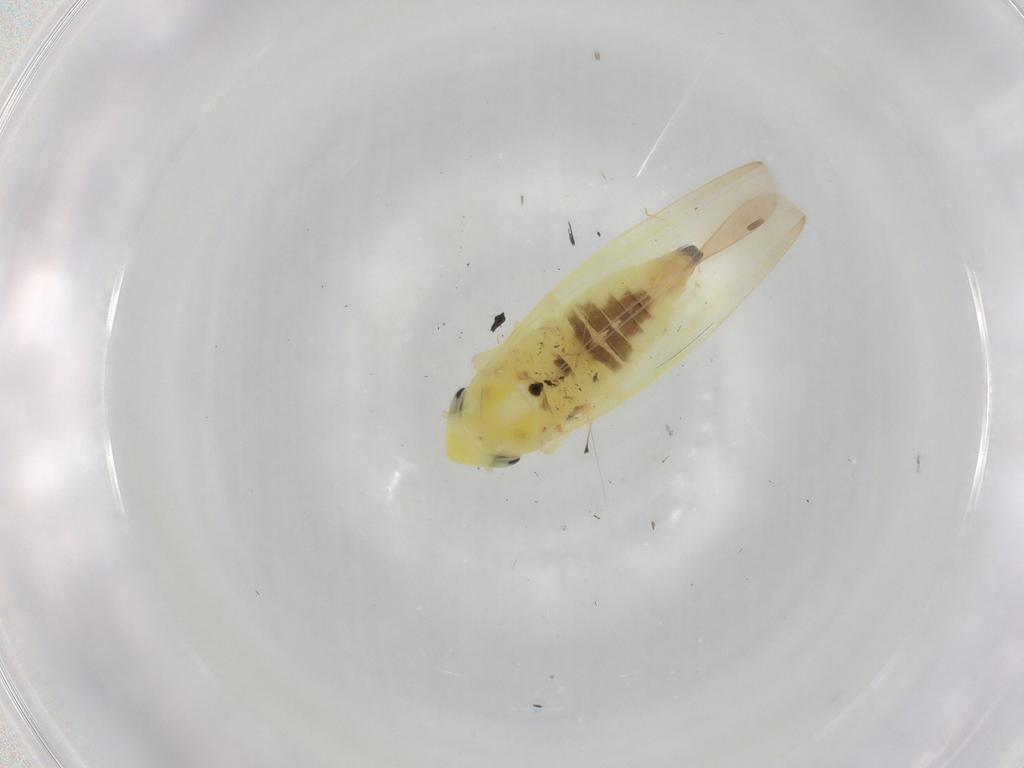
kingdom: Animalia
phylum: Arthropoda
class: Insecta
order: Hemiptera
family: Cicadellidae
